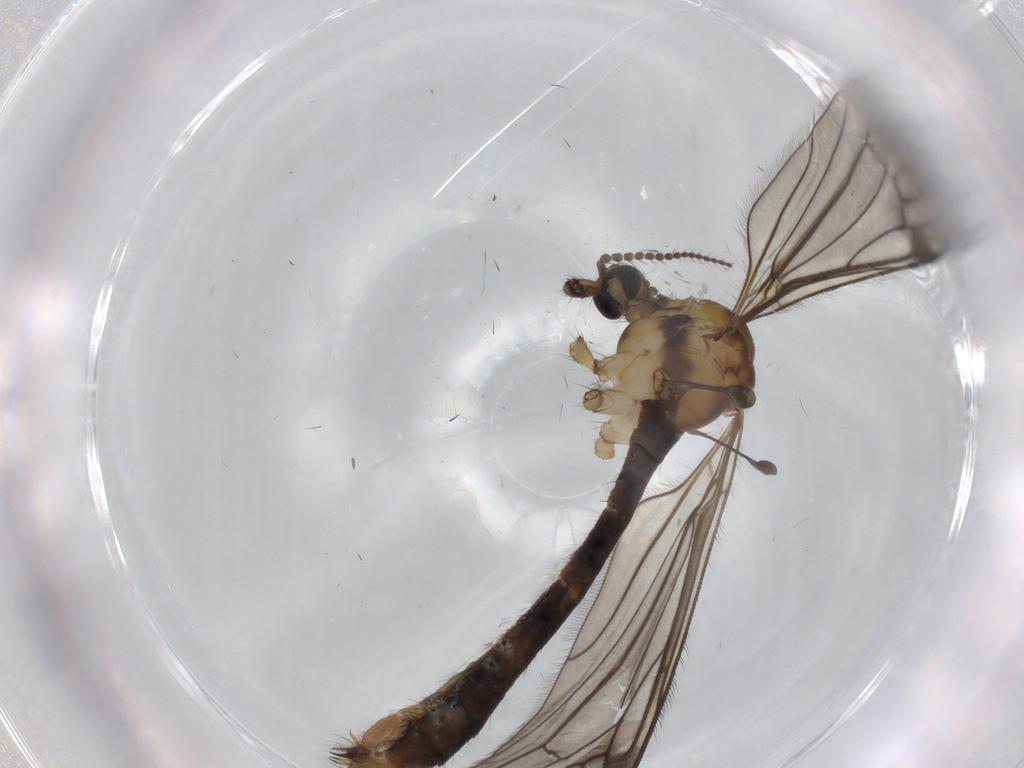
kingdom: Animalia
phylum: Arthropoda
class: Insecta
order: Diptera
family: Limoniidae
